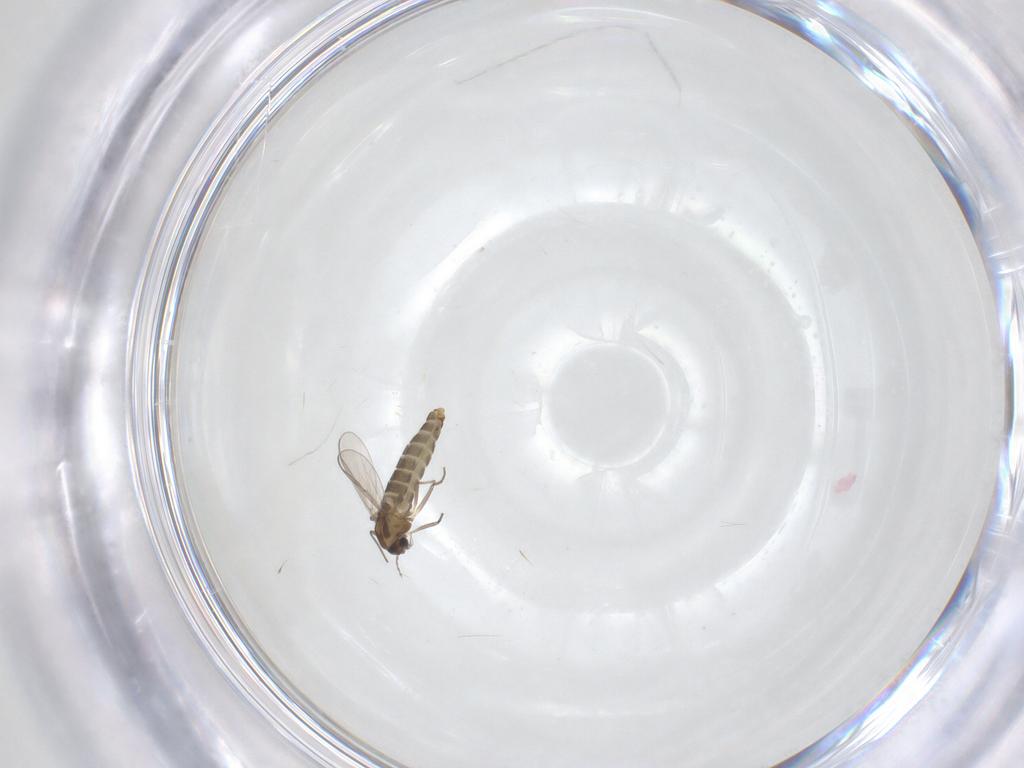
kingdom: Animalia
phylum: Arthropoda
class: Insecta
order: Diptera
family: Chironomidae
